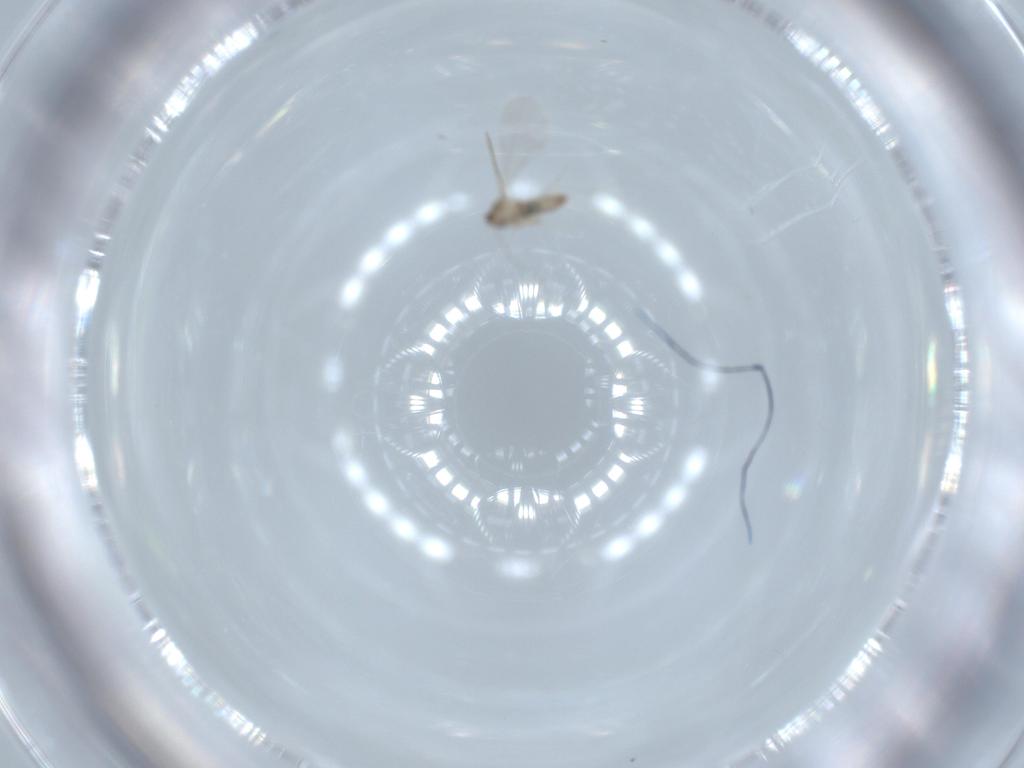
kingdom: Animalia
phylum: Arthropoda
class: Insecta
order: Diptera
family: Cecidomyiidae
